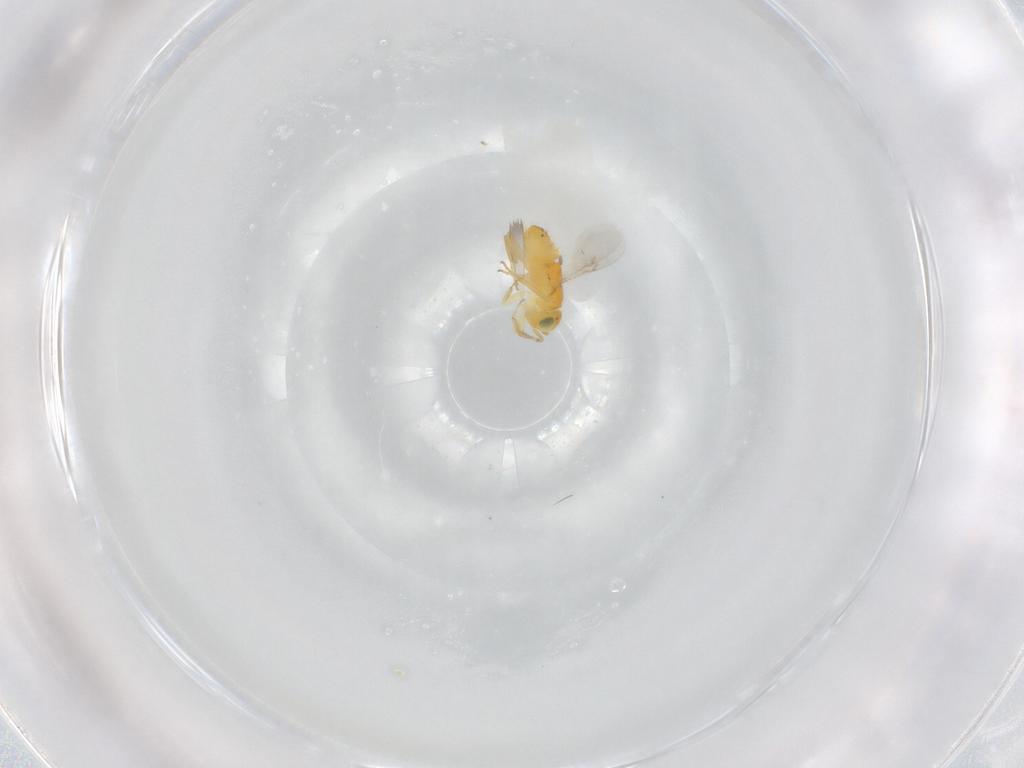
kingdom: Animalia
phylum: Arthropoda
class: Insecta
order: Hymenoptera
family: Encyrtidae
